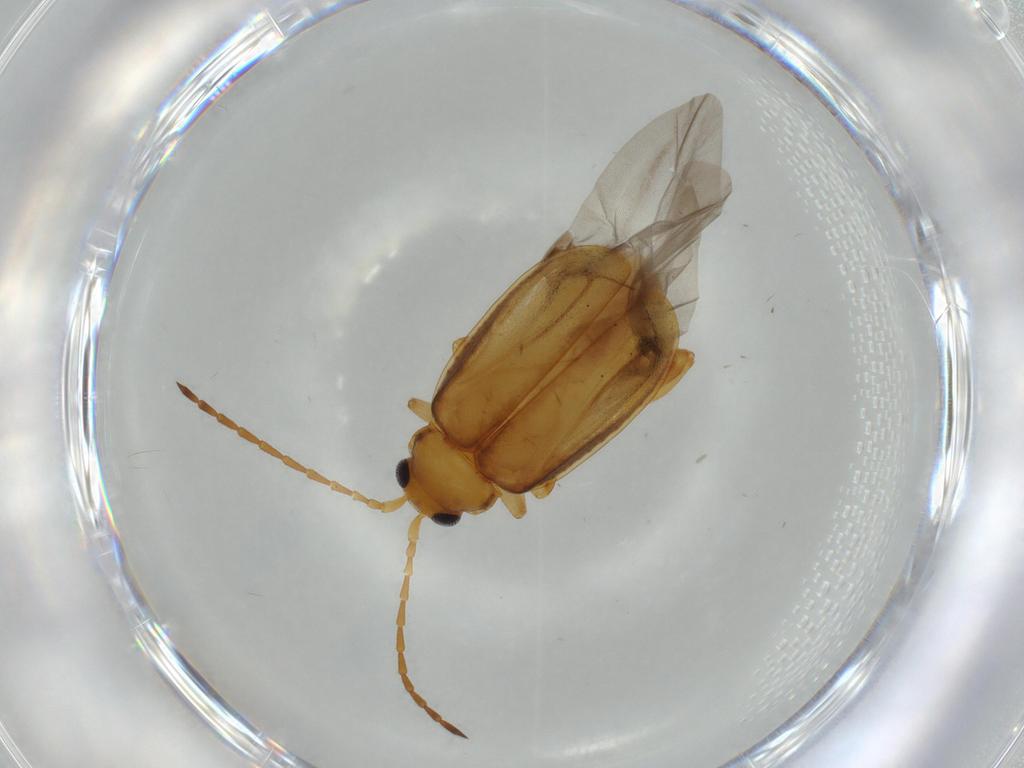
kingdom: Animalia
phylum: Arthropoda
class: Insecta
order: Coleoptera
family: Chrysomelidae
